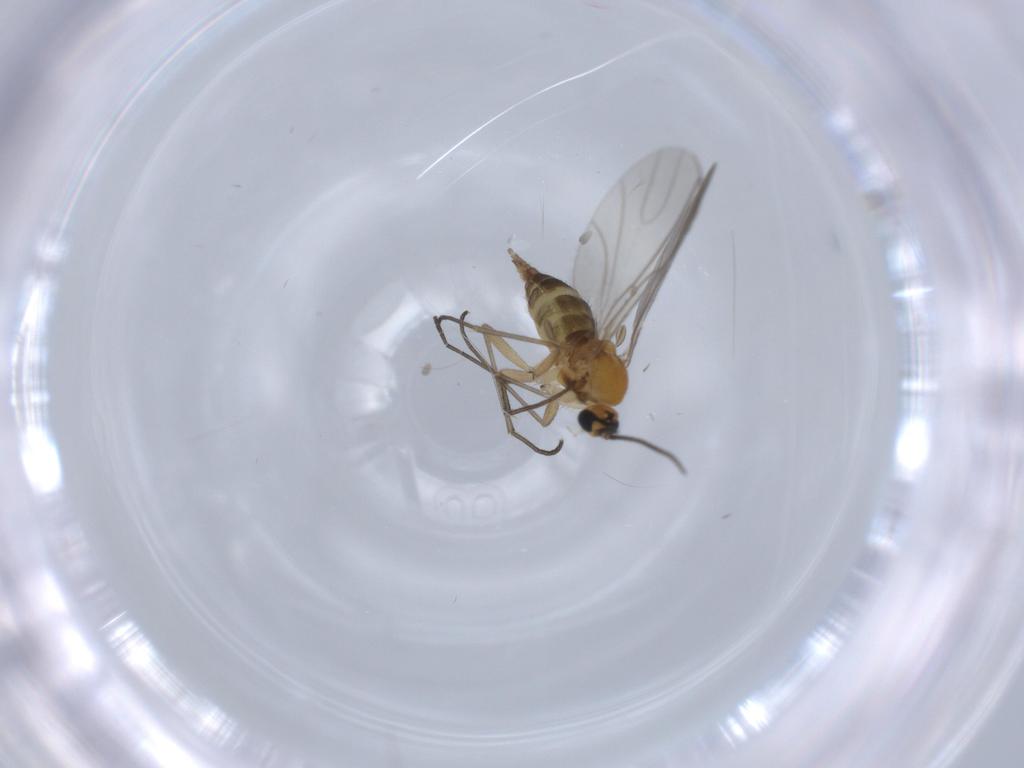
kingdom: Animalia
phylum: Arthropoda
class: Insecta
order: Diptera
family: Sciaridae
